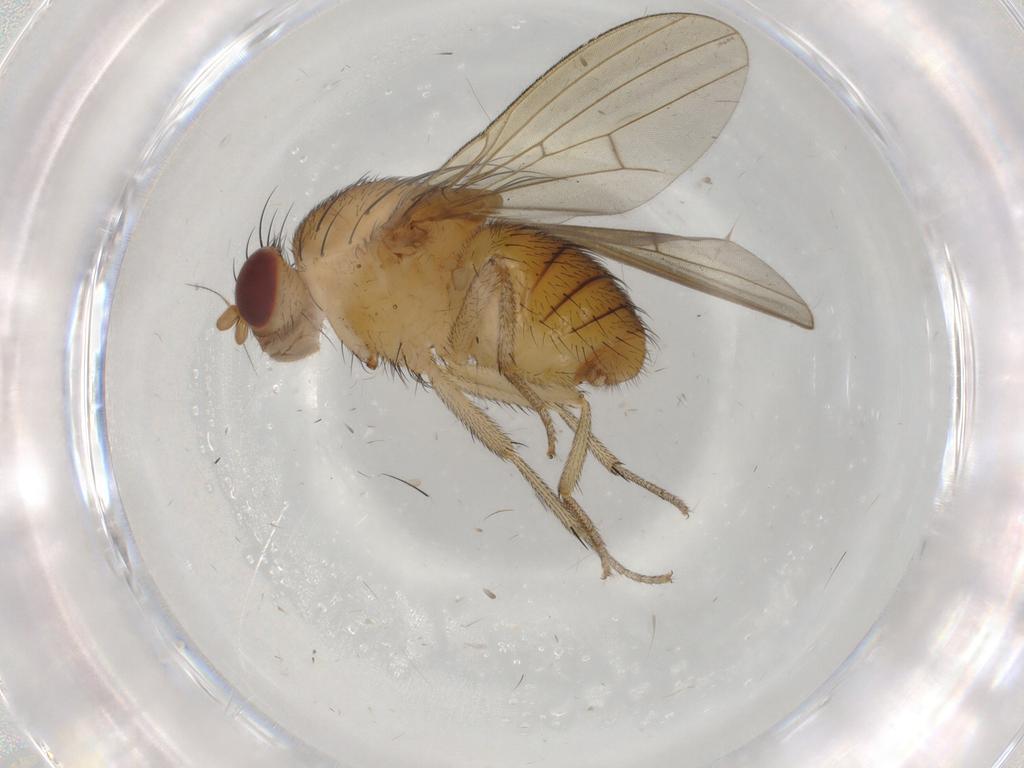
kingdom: Animalia
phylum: Arthropoda
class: Insecta
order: Diptera
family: Lauxaniidae
